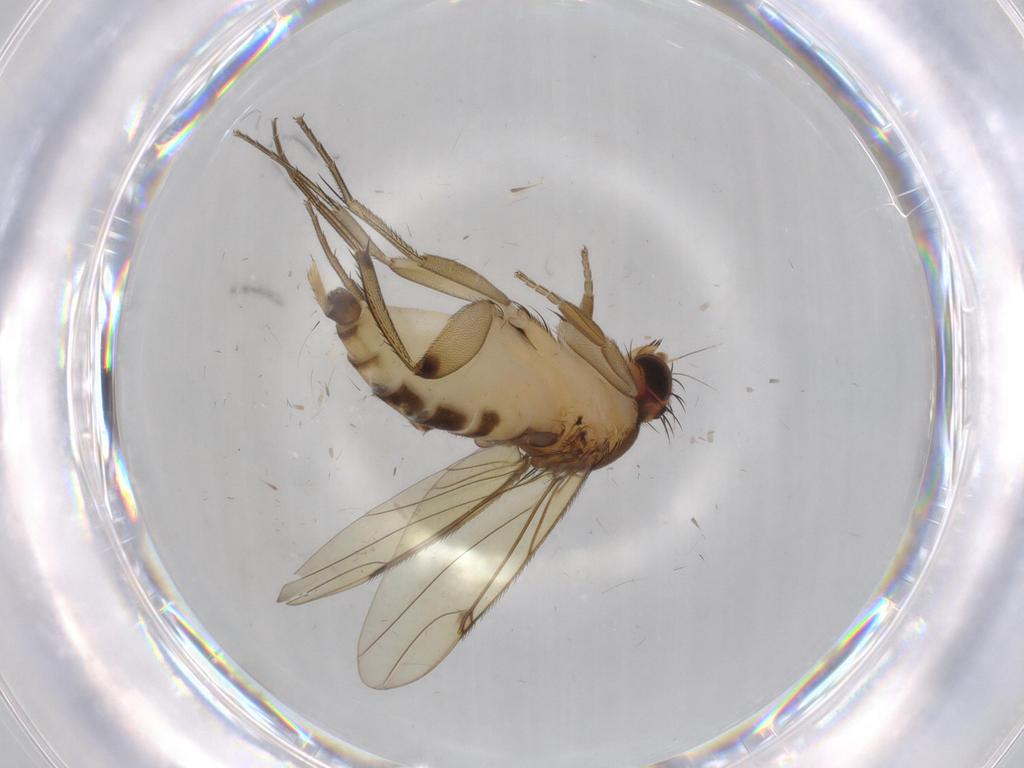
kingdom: Animalia
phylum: Arthropoda
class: Insecta
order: Diptera
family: Phoridae
